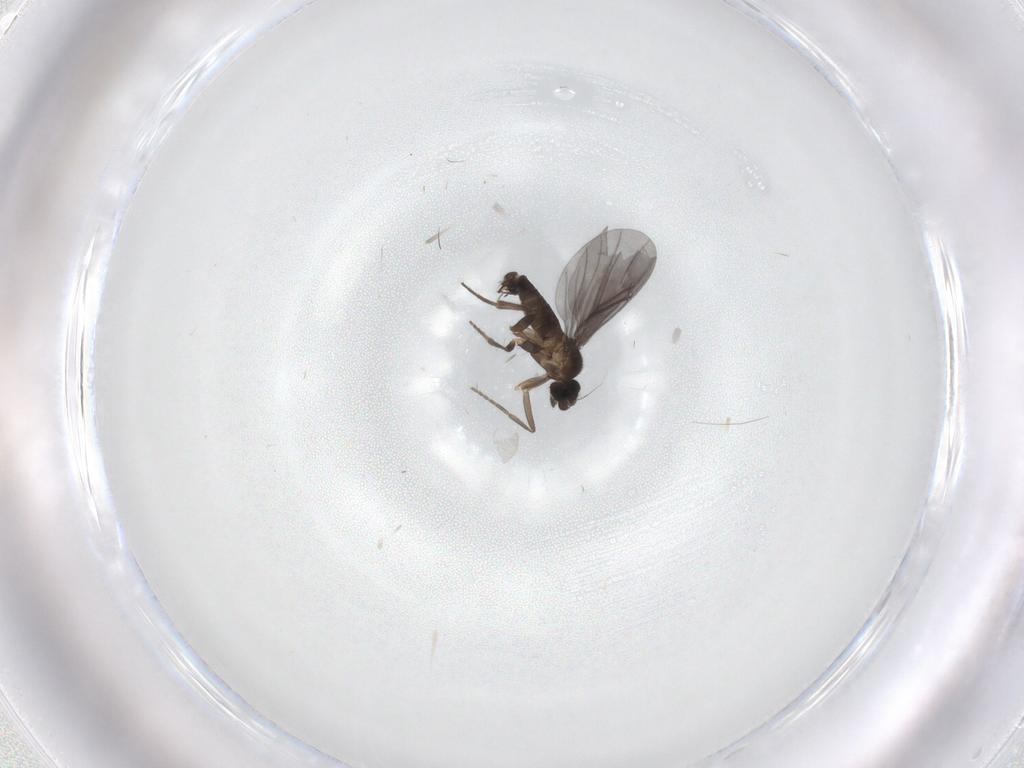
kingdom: Animalia
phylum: Arthropoda
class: Insecta
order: Diptera
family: Phoridae
